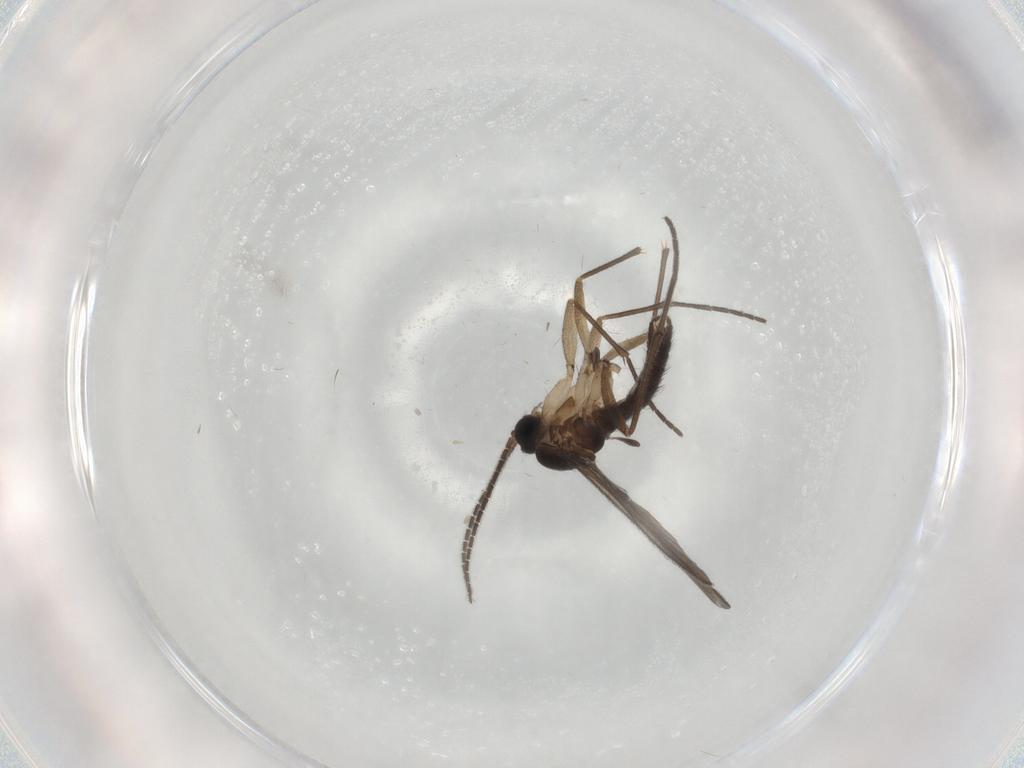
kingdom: Animalia
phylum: Arthropoda
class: Insecta
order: Diptera
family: Sciaridae
